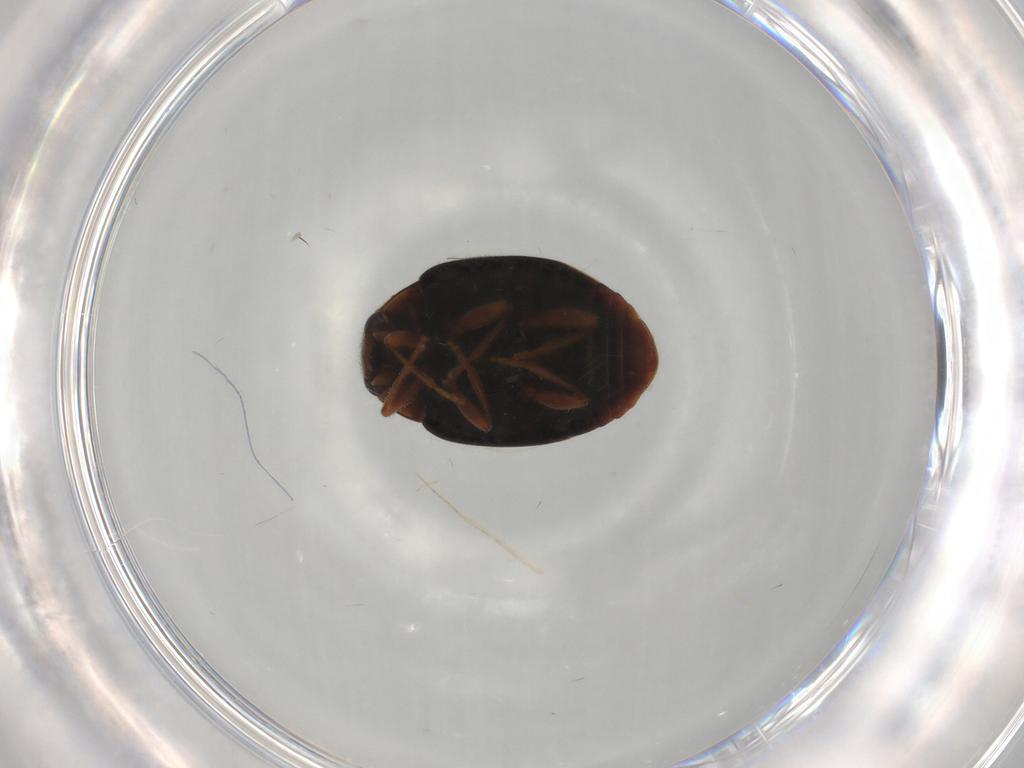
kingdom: Animalia
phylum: Arthropoda
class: Insecta
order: Coleoptera
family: Coccinellidae
